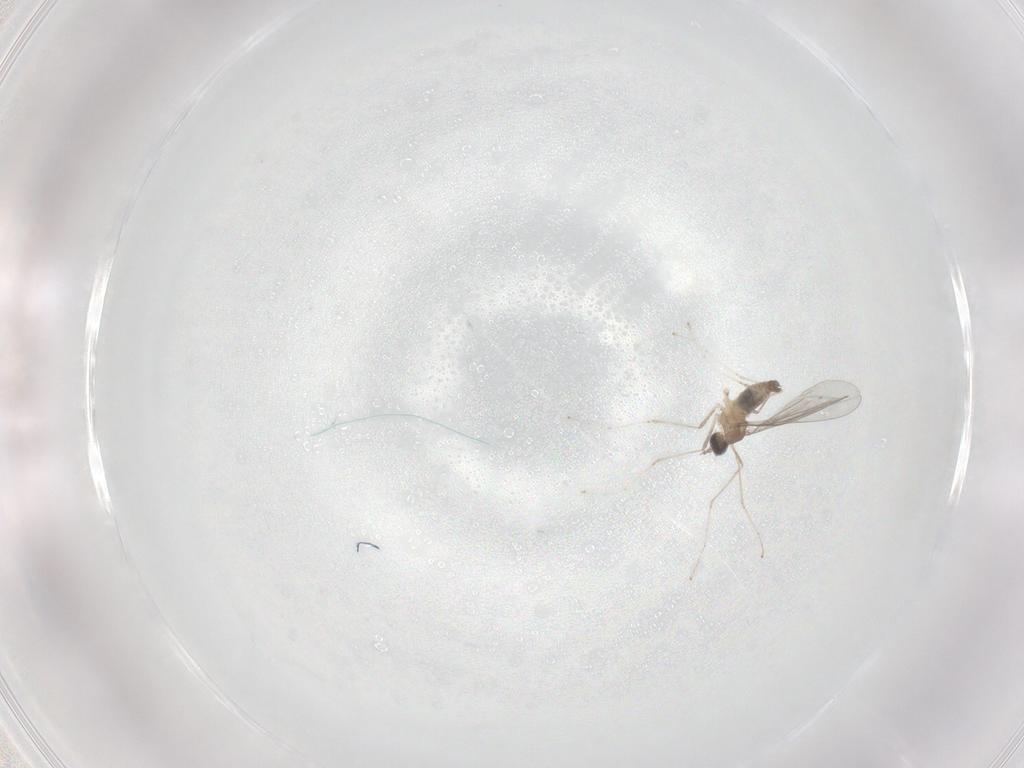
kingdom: Animalia
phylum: Arthropoda
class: Insecta
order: Diptera
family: Cecidomyiidae
